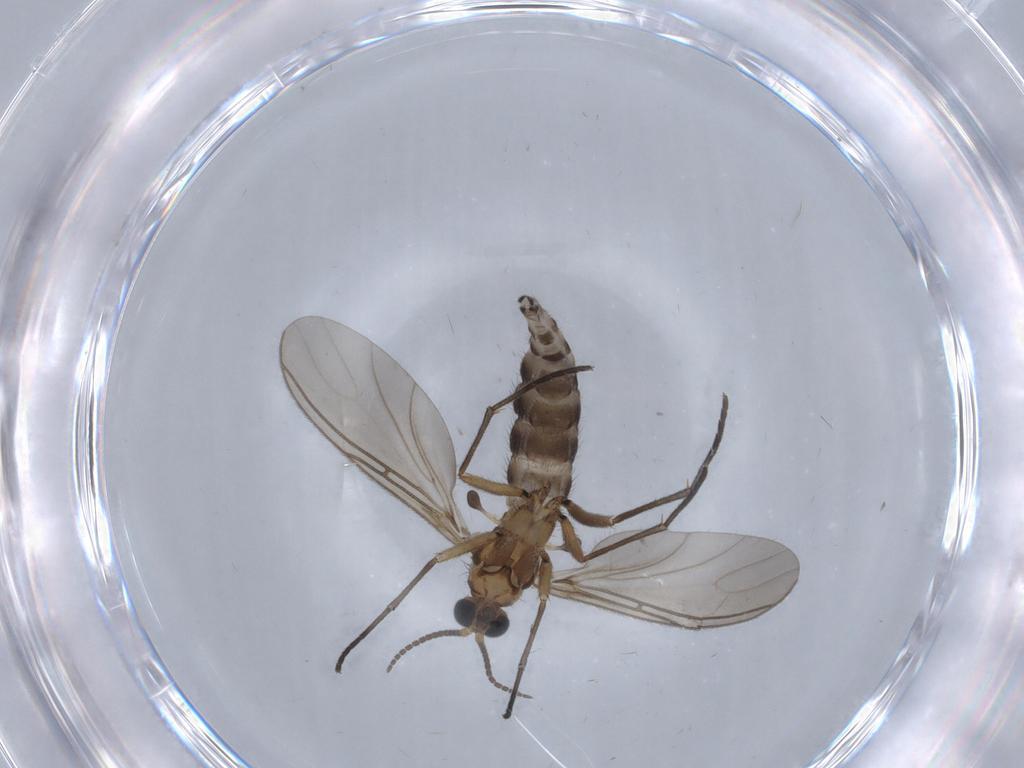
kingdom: Animalia
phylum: Arthropoda
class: Insecta
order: Diptera
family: Sciaridae
